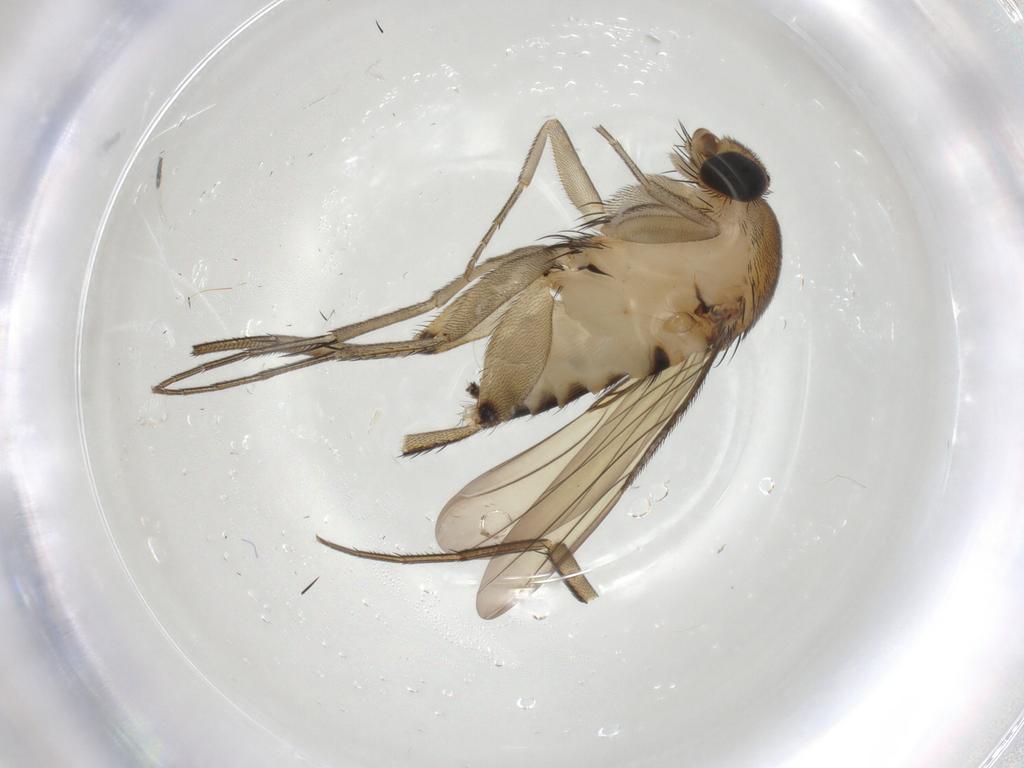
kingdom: Animalia
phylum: Arthropoda
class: Insecta
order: Diptera
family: Phoridae
